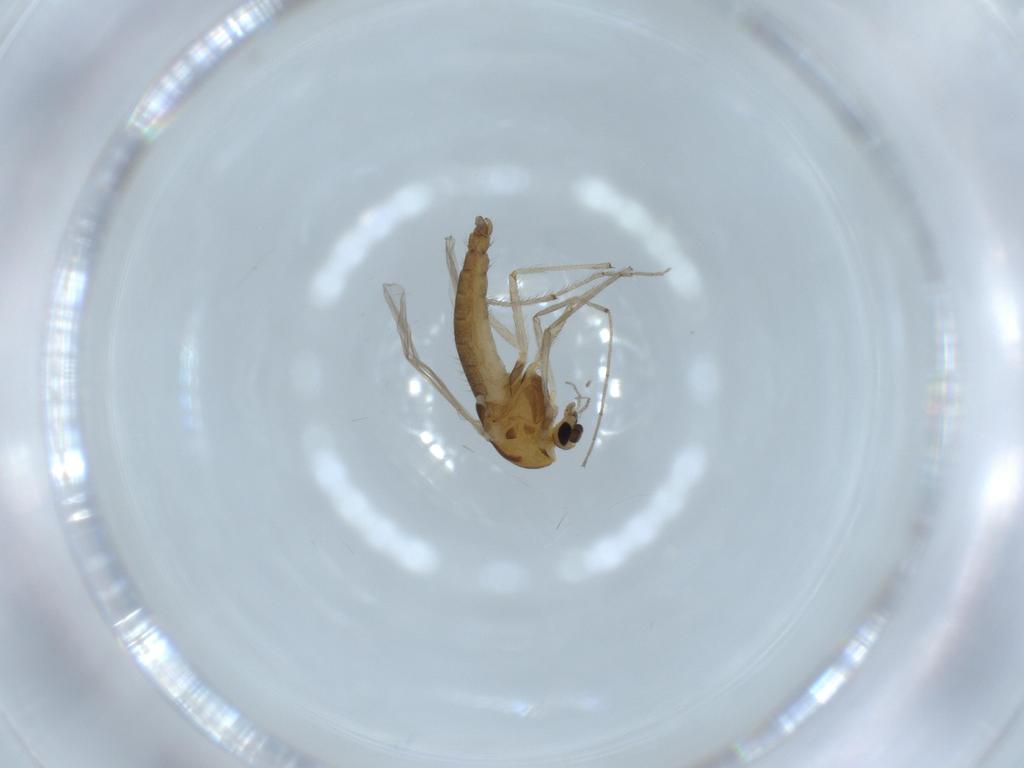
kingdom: Animalia
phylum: Arthropoda
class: Insecta
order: Diptera
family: Chironomidae
